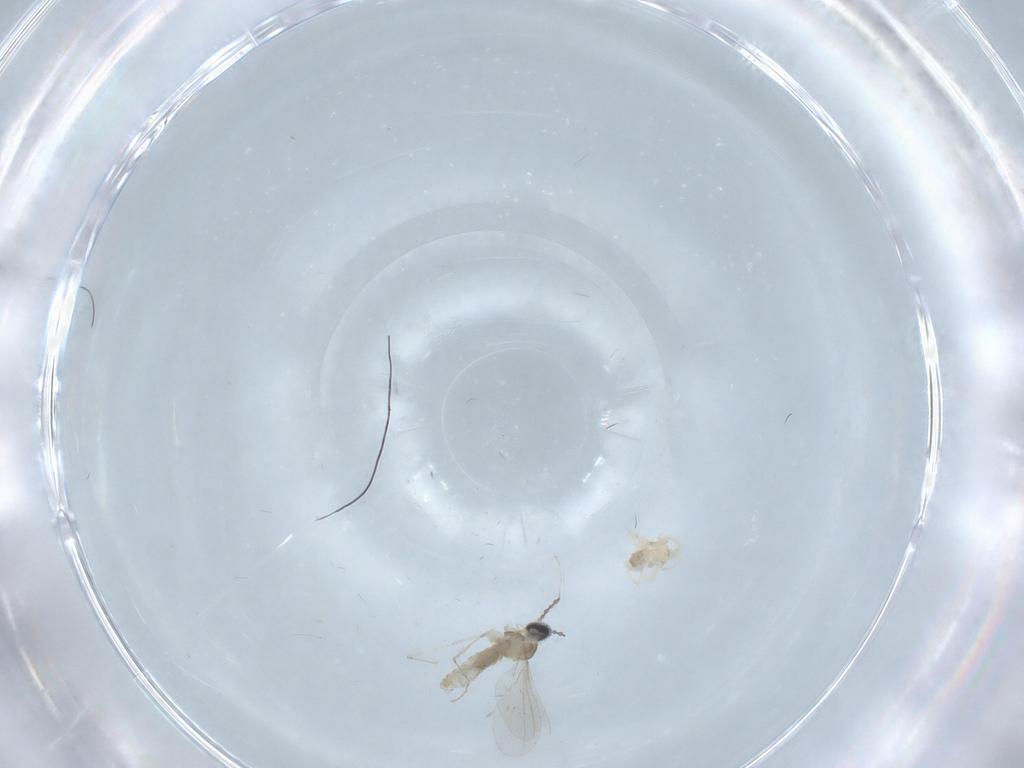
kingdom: Animalia
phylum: Arthropoda
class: Insecta
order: Diptera
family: Cecidomyiidae
